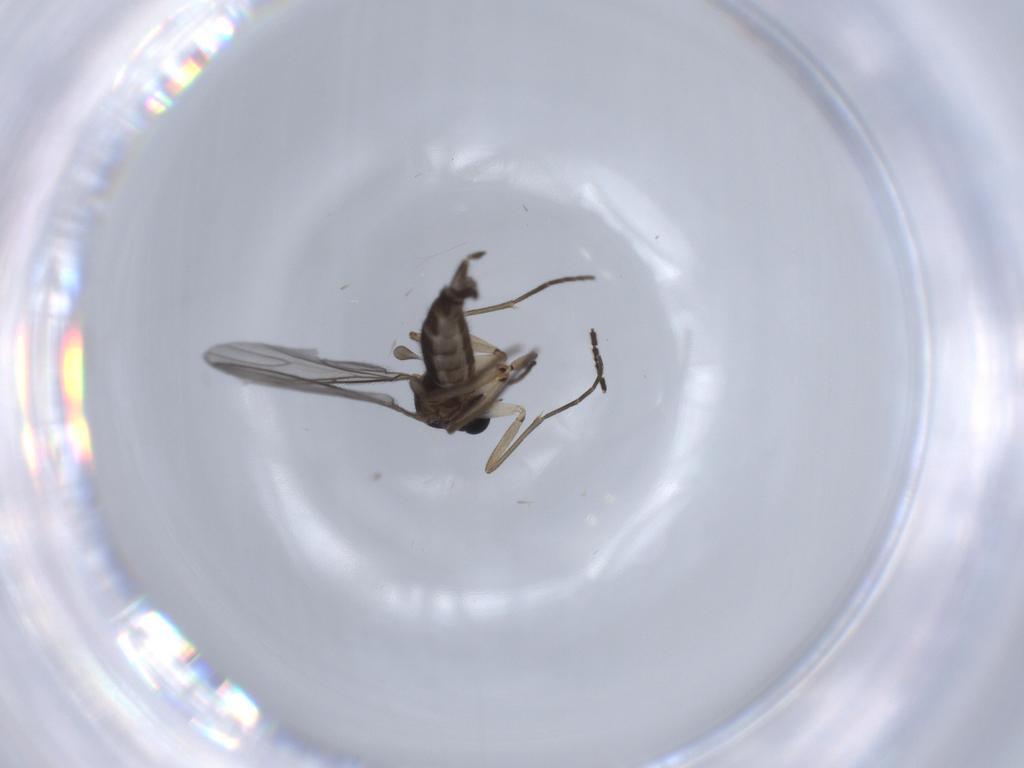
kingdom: Animalia
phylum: Arthropoda
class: Insecta
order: Diptera
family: Sciaridae
